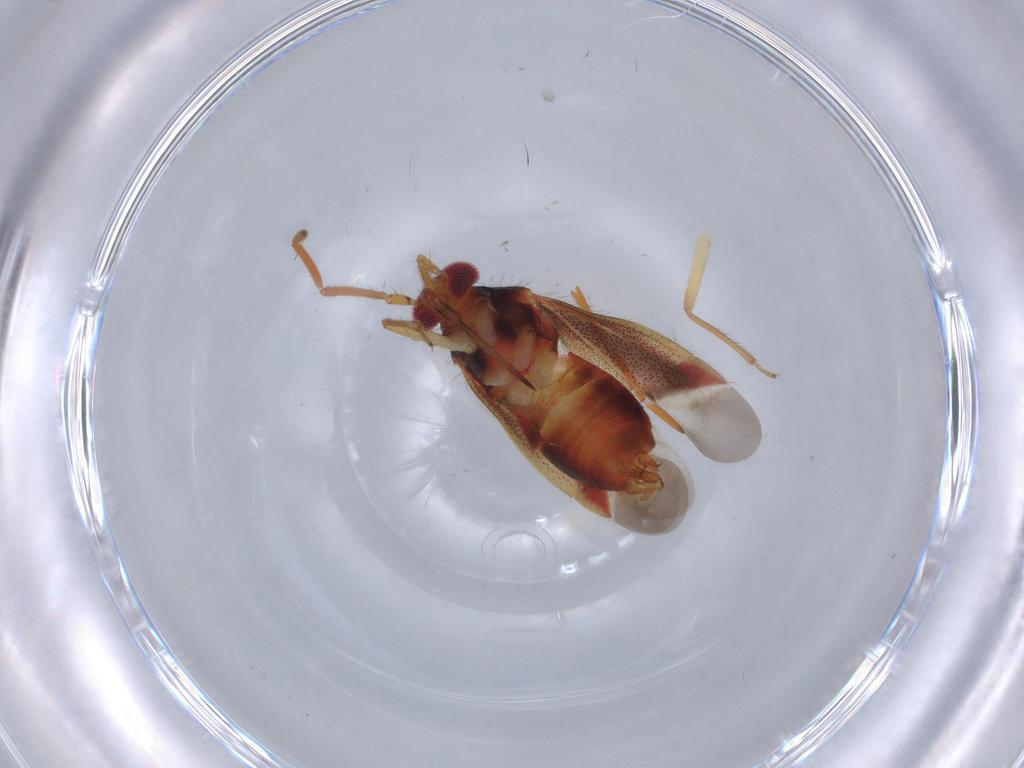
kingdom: Animalia
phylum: Arthropoda
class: Insecta
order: Hemiptera
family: Miridae
